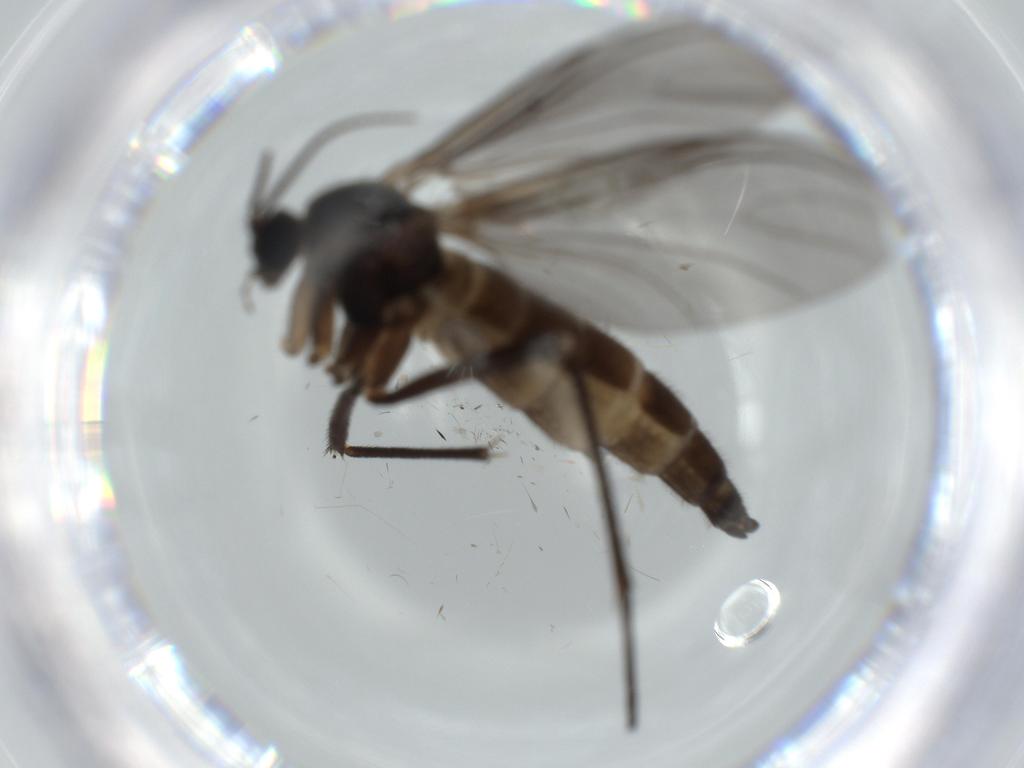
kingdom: Animalia
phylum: Arthropoda
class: Insecta
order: Diptera
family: Sciaridae
